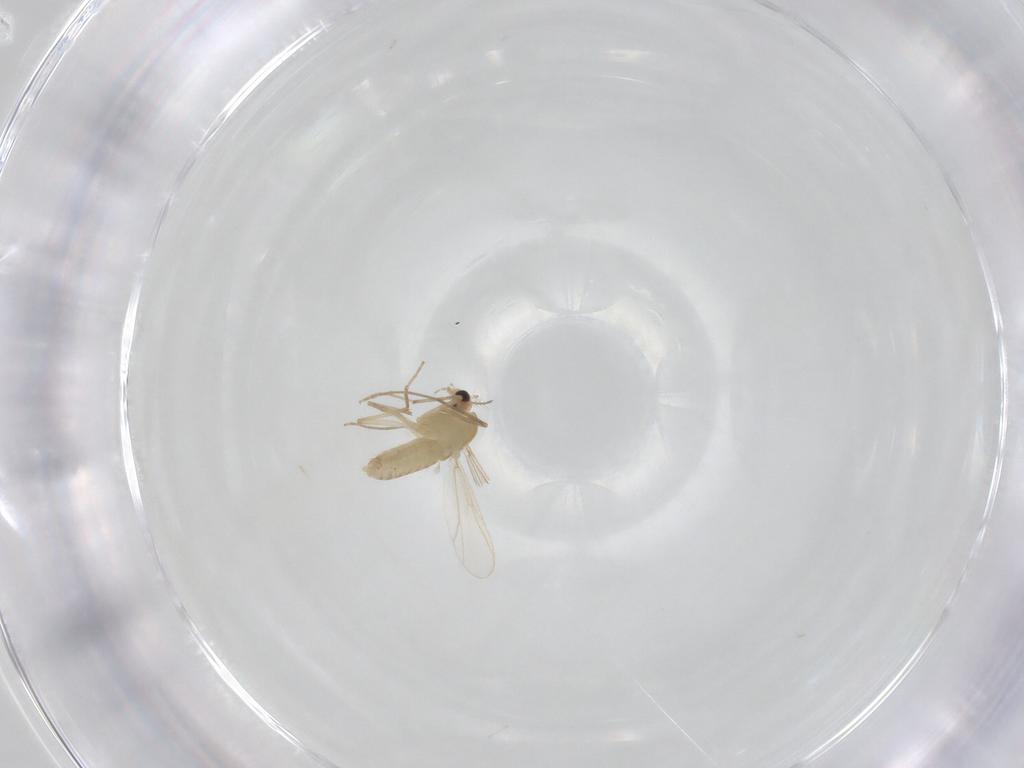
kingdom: Animalia
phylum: Arthropoda
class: Insecta
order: Diptera
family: Chironomidae
